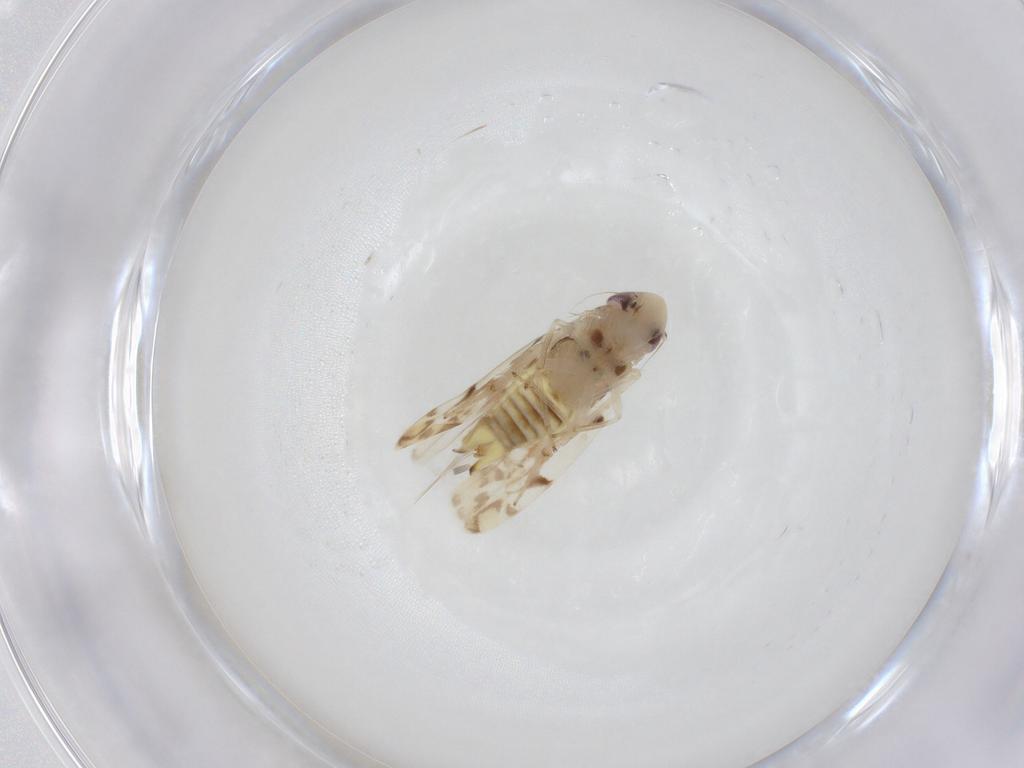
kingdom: Animalia
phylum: Arthropoda
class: Insecta
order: Hemiptera
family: Cicadellidae
